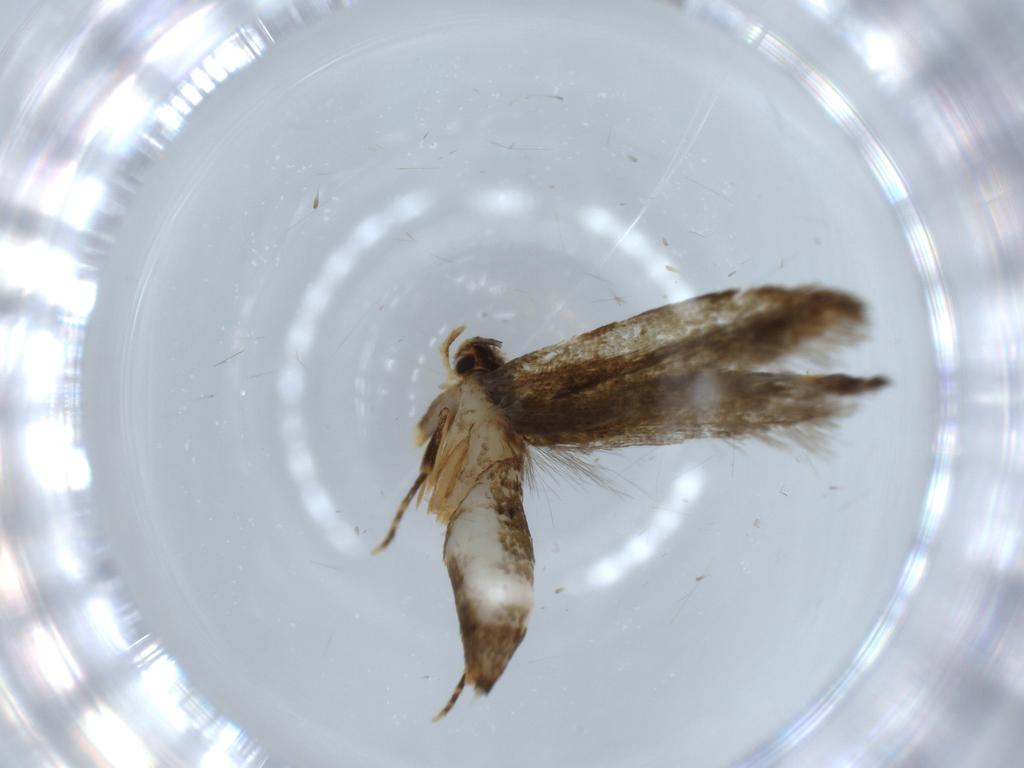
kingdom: Animalia
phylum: Arthropoda
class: Insecta
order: Lepidoptera
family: Tineidae
